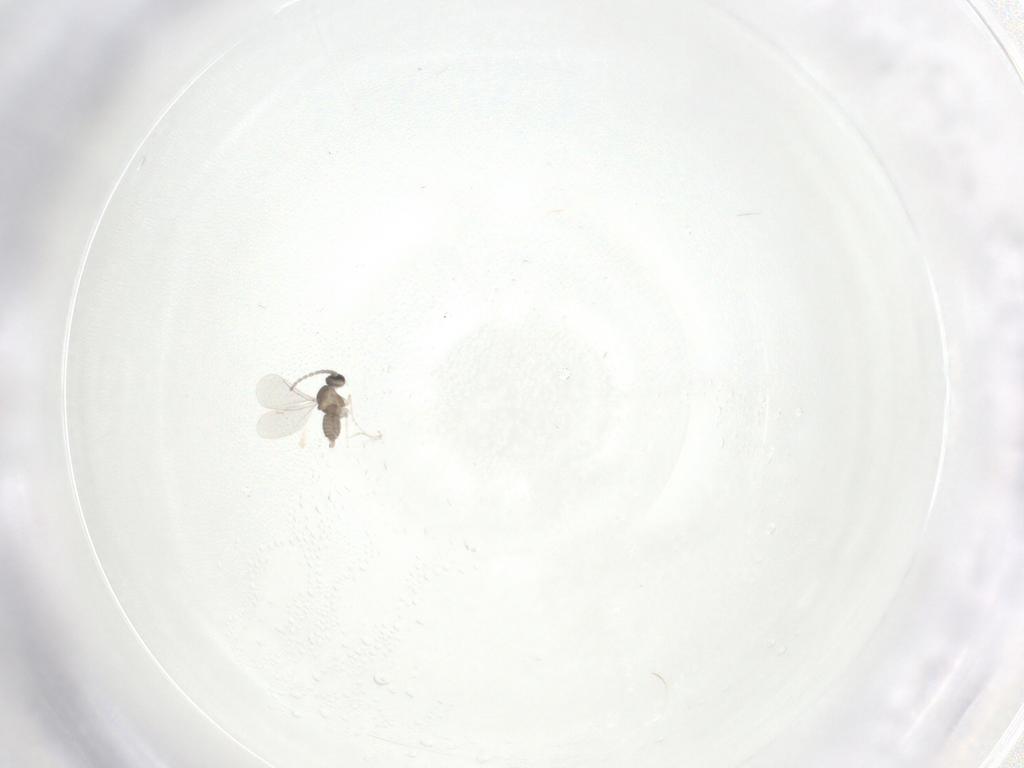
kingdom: Animalia
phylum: Arthropoda
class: Insecta
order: Diptera
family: Cecidomyiidae
